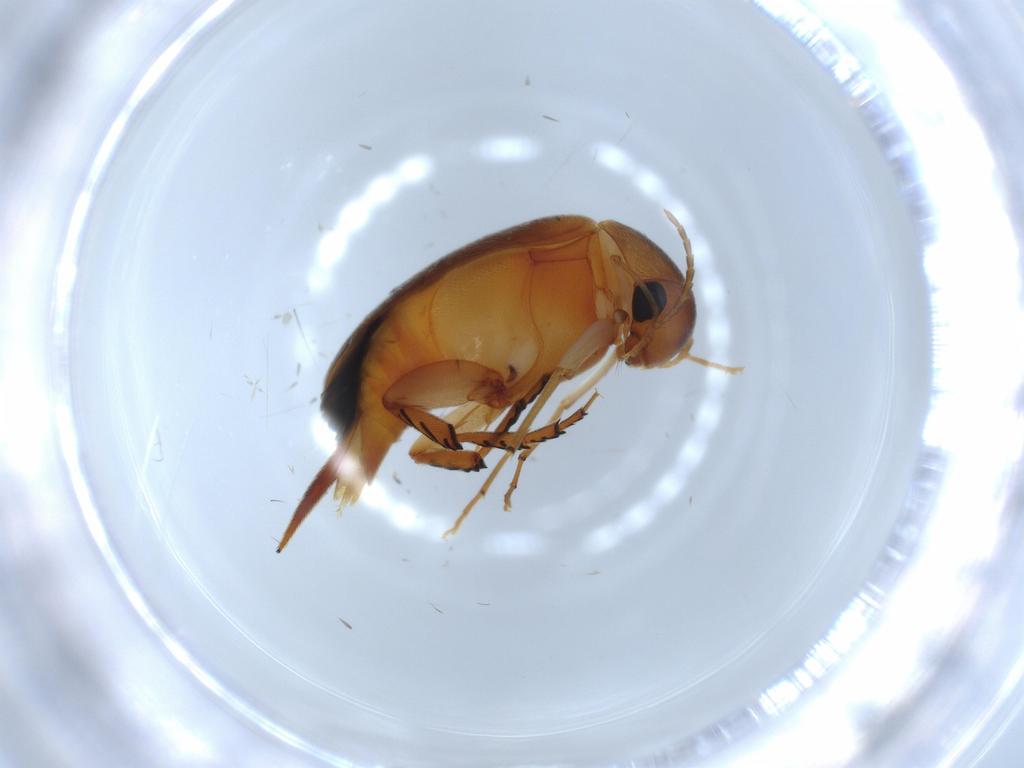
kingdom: Animalia
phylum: Arthropoda
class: Insecta
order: Coleoptera
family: Mordellidae
